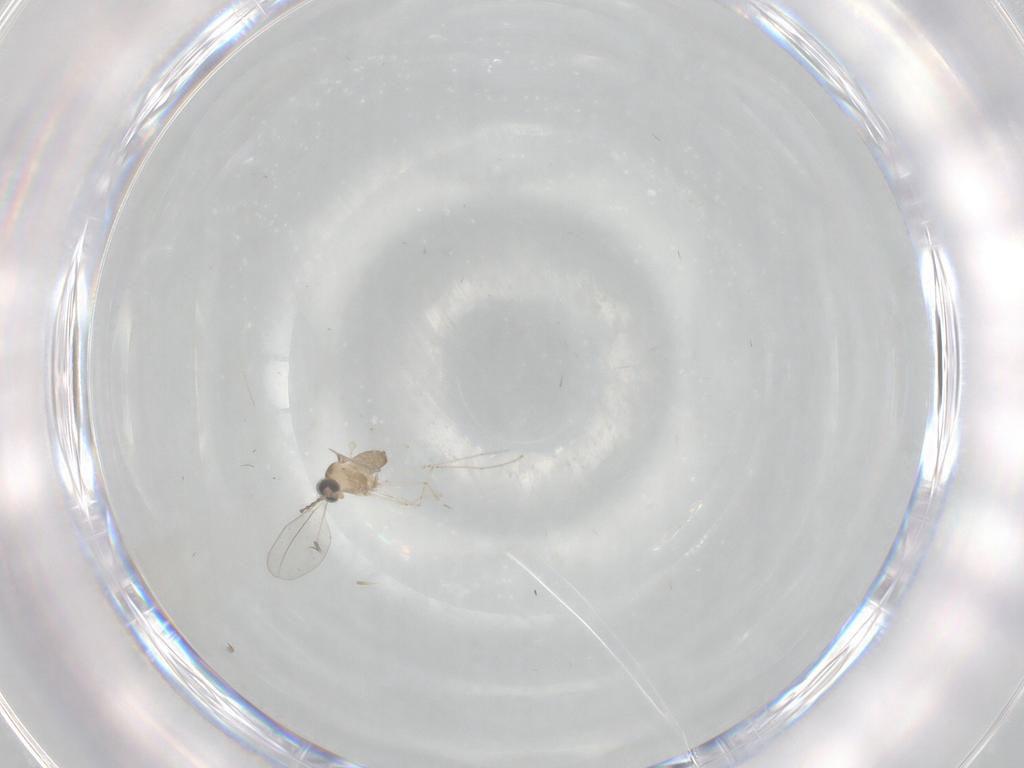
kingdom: Animalia
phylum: Arthropoda
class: Insecta
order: Diptera
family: Cecidomyiidae
